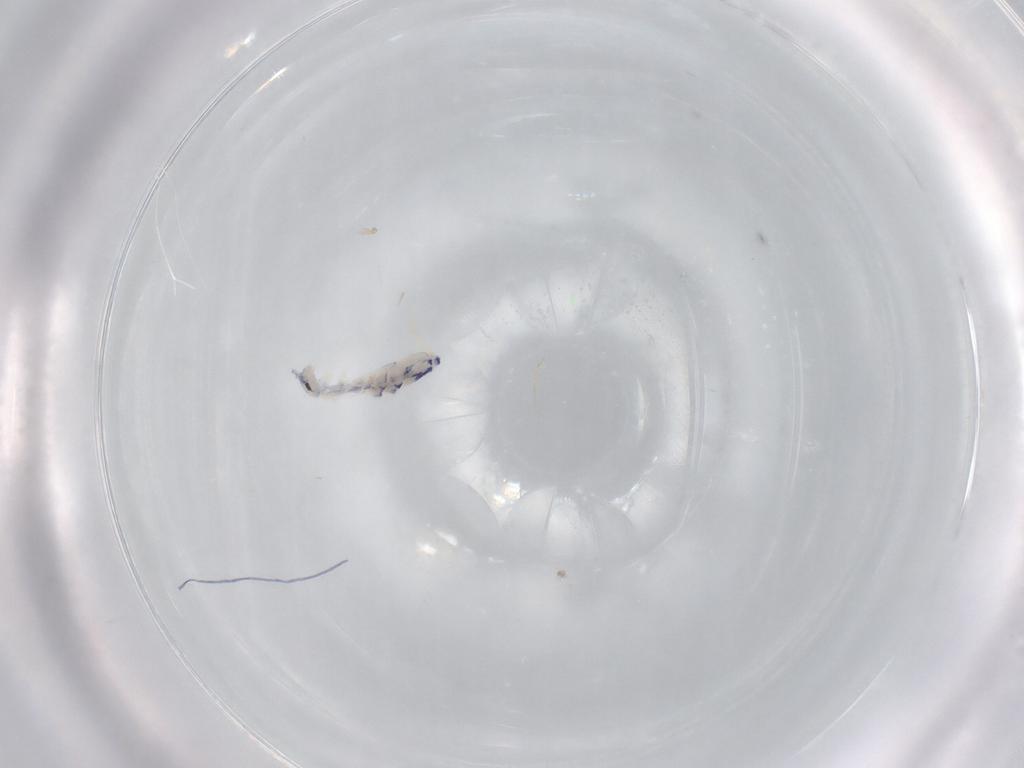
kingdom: Animalia
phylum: Arthropoda
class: Collembola
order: Entomobryomorpha
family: Entomobryidae
